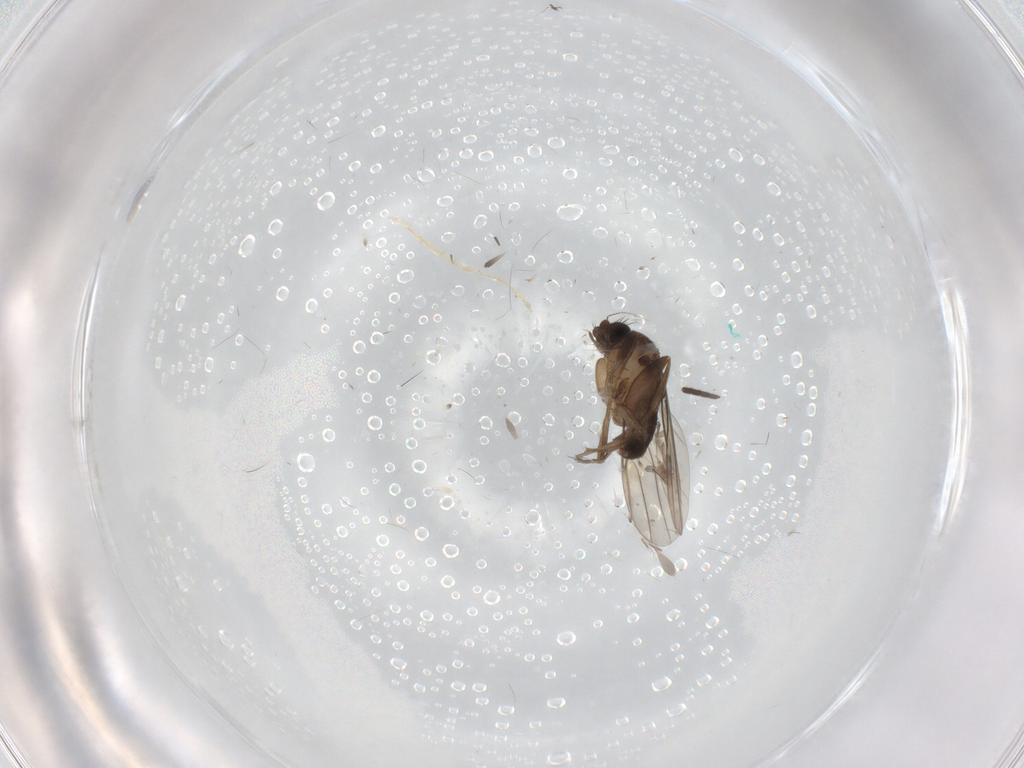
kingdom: Animalia
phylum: Arthropoda
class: Insecta
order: Diptera
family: Phoridae
